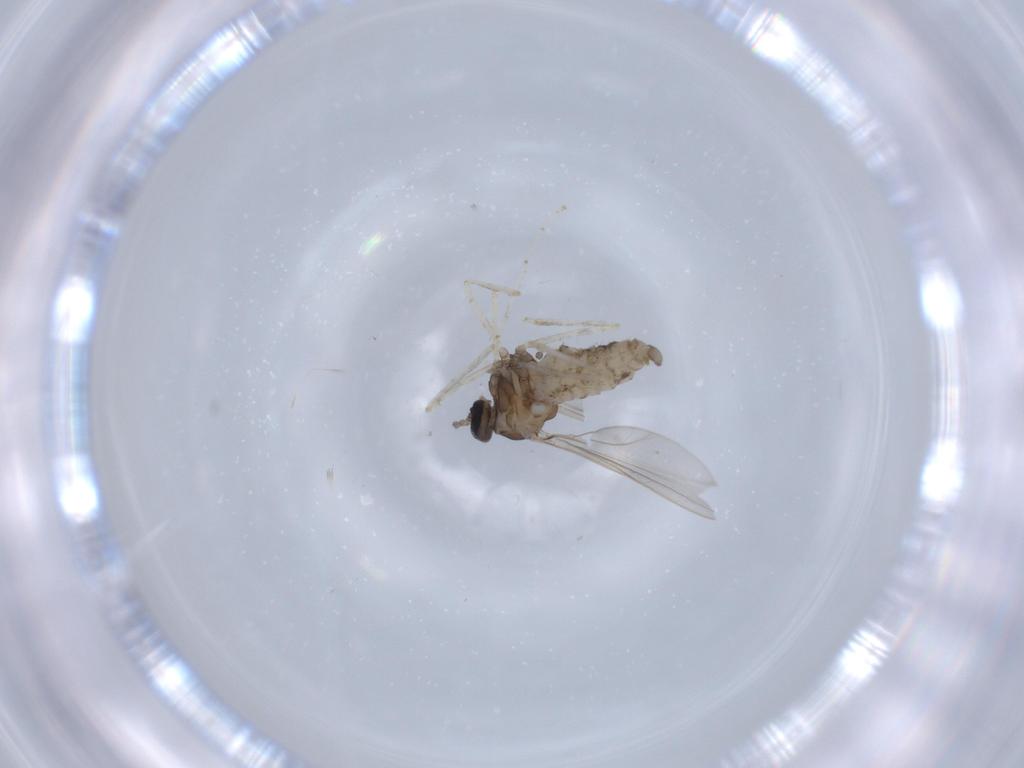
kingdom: Animalia
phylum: Arthropoda
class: Insecta
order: Diptera
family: Cecidomyiidae
